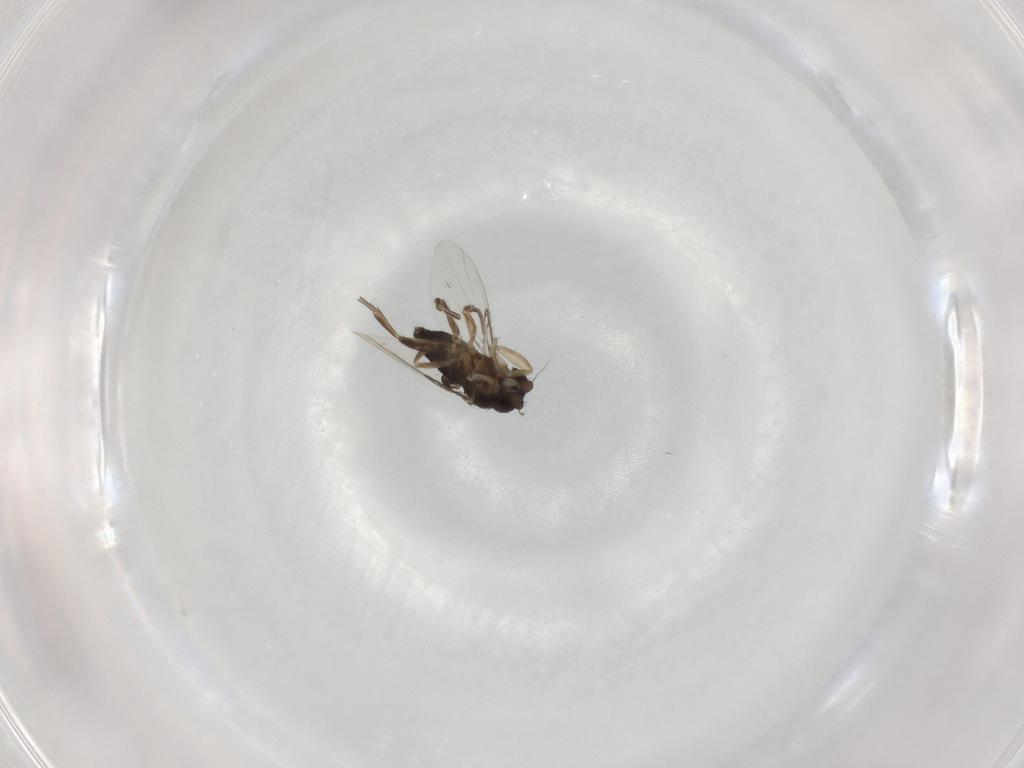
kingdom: Animalia
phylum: Arthropoda
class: Insecta
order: Diptera
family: Phoridae
